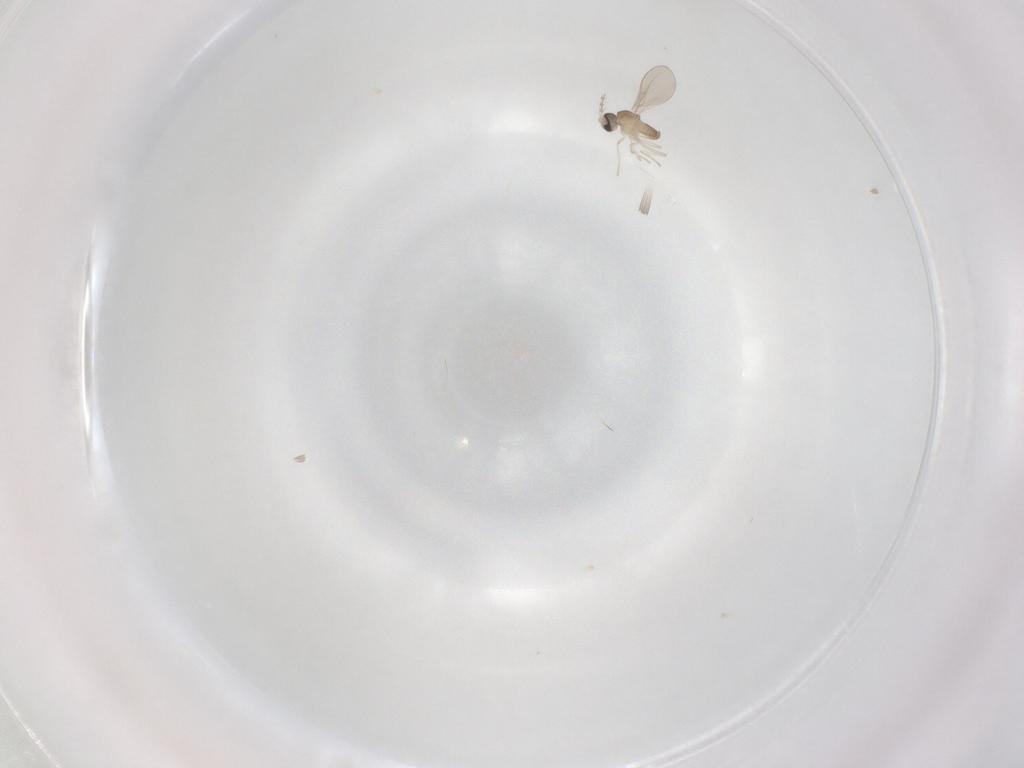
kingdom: Animalia
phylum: Arthropoda
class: Insecta
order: Diptera
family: Cecidomyiidae
